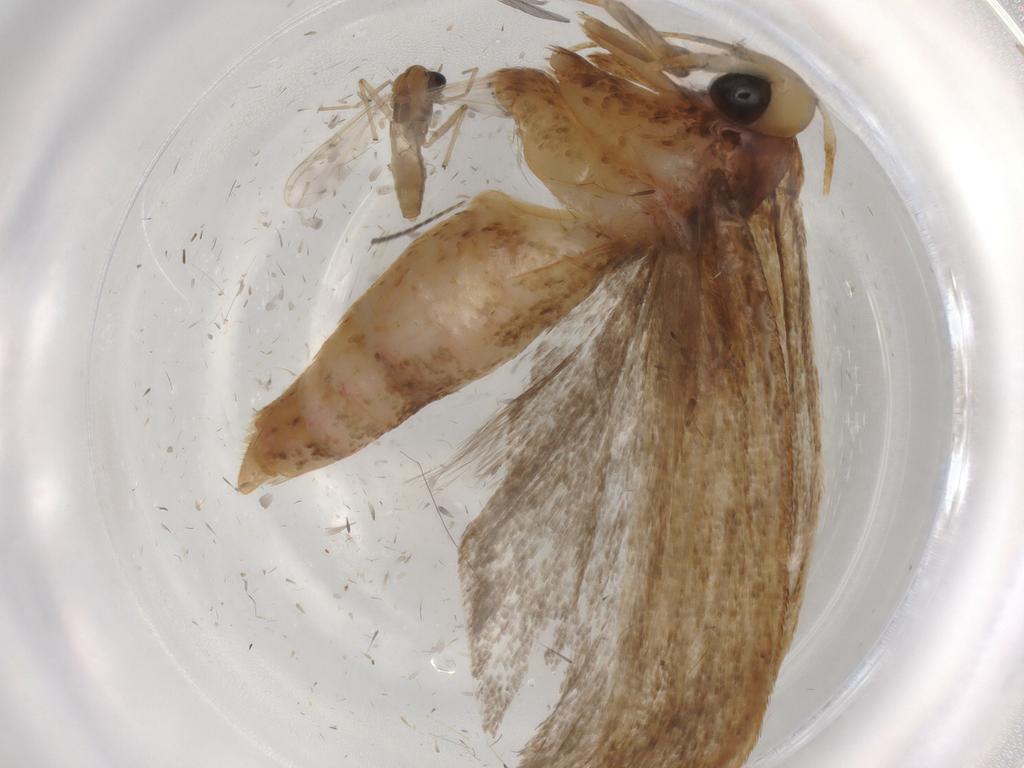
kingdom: Animalia
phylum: Arthropoda
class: Insecta
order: Lepidoptera
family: Autostichidae
